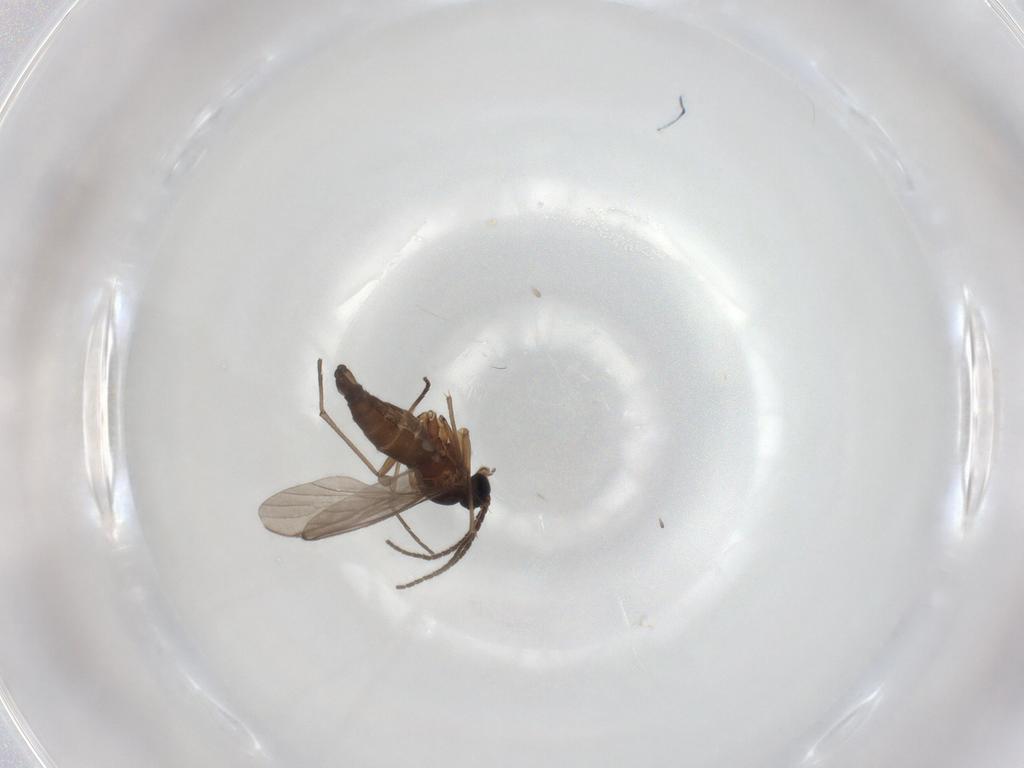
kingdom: Animalia
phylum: Arthropoda
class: Insecta
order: Diptera
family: Sciaridae
